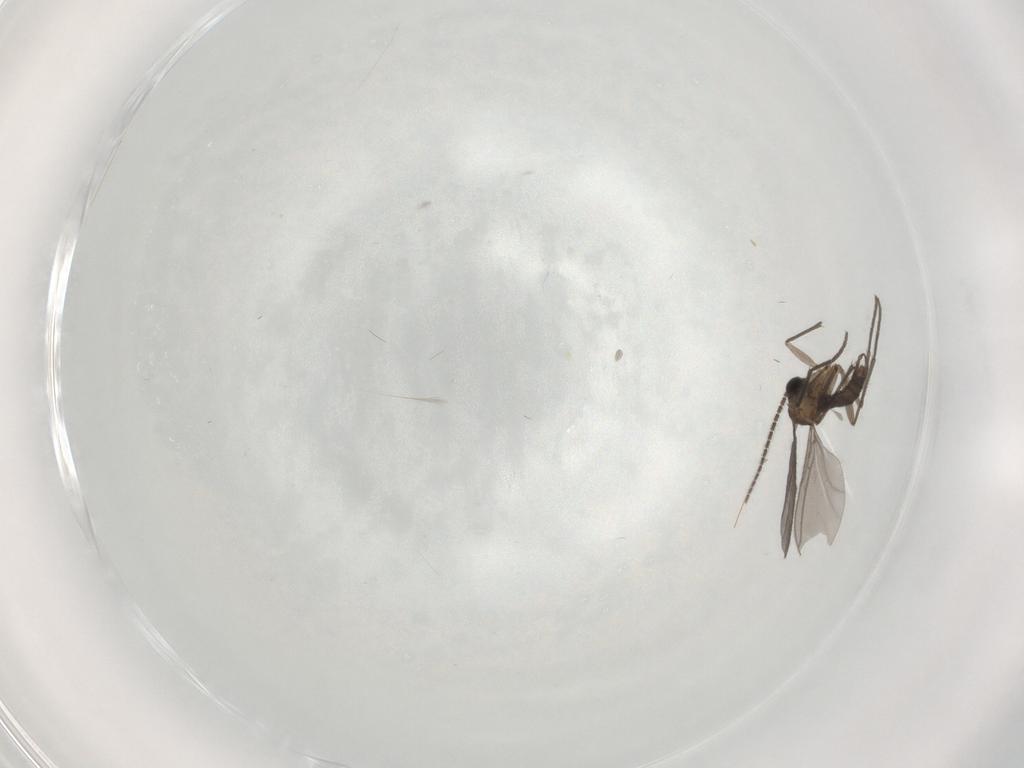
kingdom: Animalia
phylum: Arthropoda
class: Insecta
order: Diptera
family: Sciaridae
